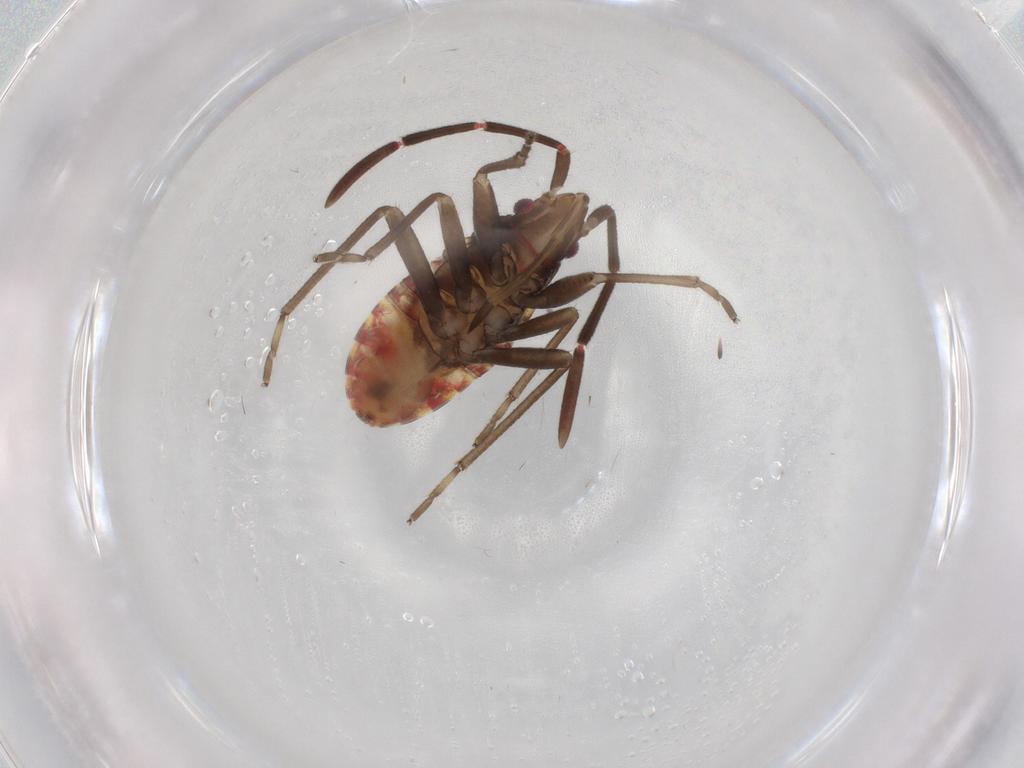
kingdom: Animalia
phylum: Arthropoda
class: Insecta
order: Hemiptera
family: Rhyparochromidae
